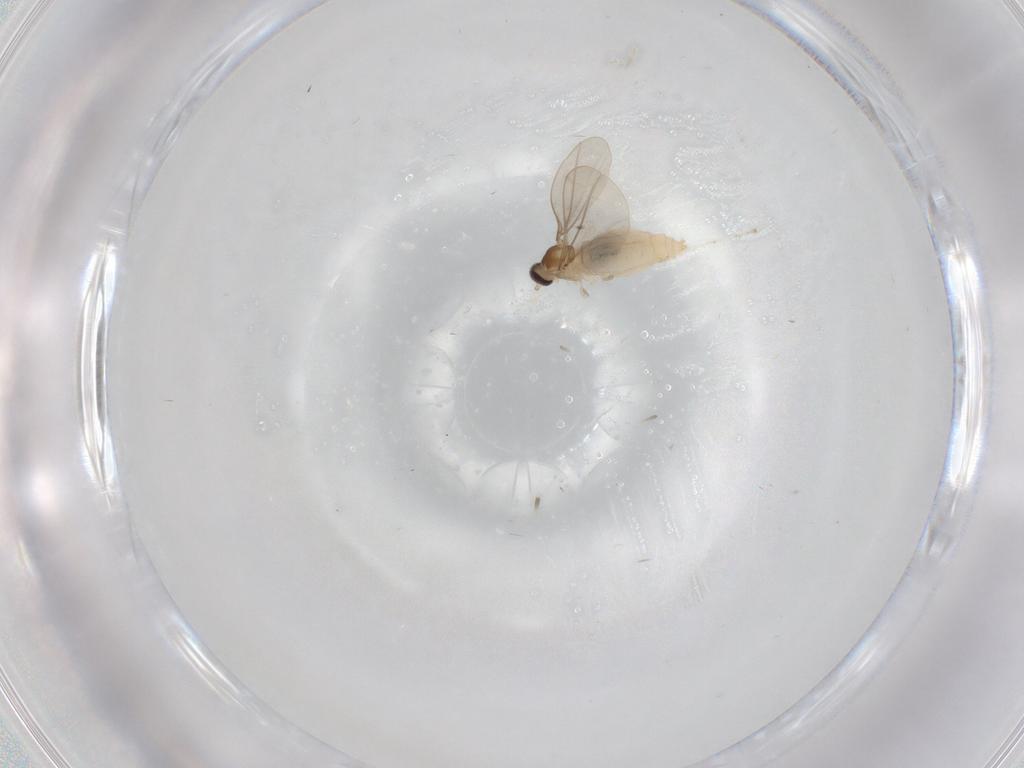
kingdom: Animalia
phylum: Arthropoda
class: Insecta
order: Diptera
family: Cecidomyiidae
